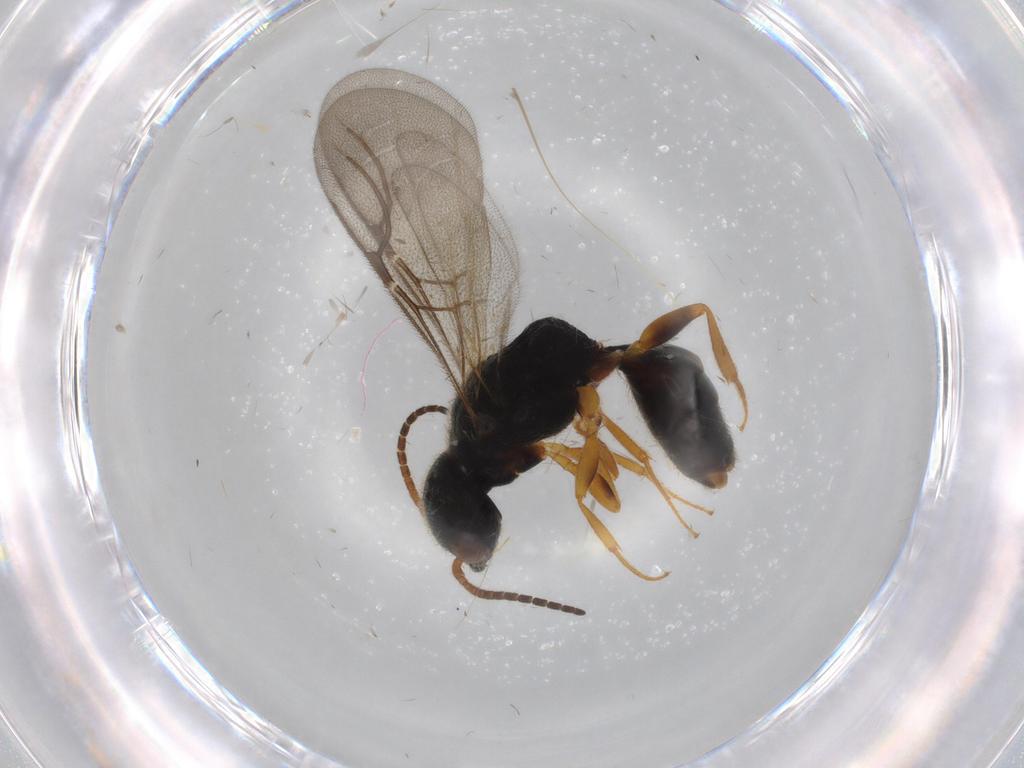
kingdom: Animalia
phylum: Arthropoda
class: Insecta
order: Hymenoptera
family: Bethylidae
